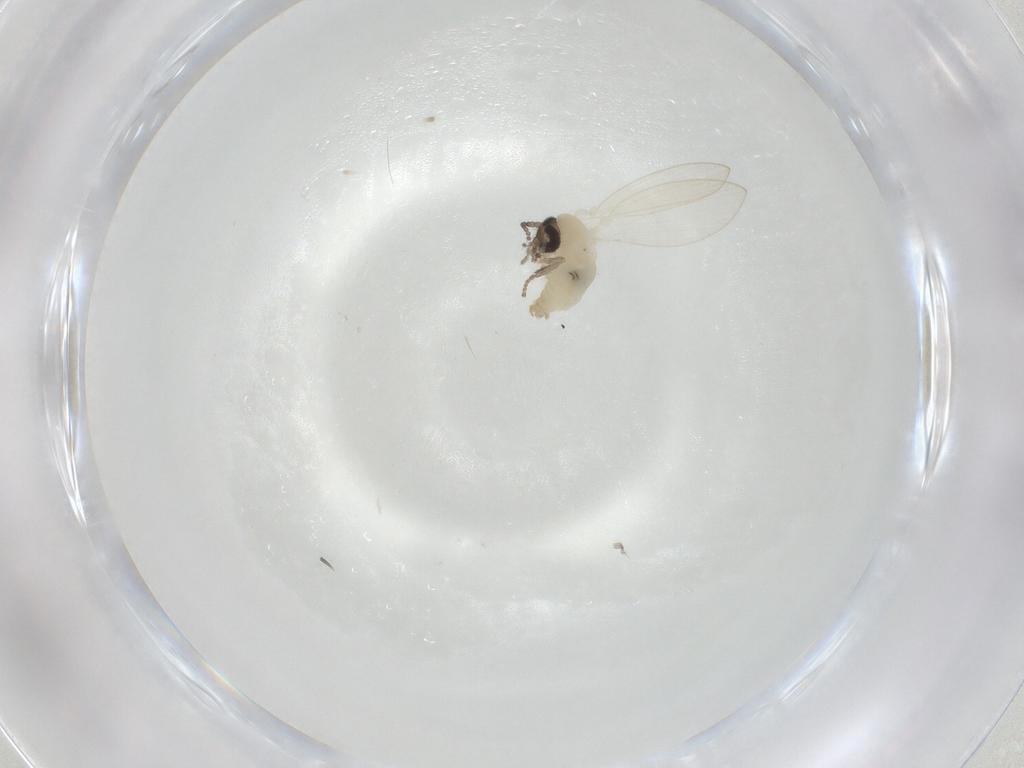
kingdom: Animalia
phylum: Arthropoda
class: Insecta
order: Diptera
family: Psychodidae
